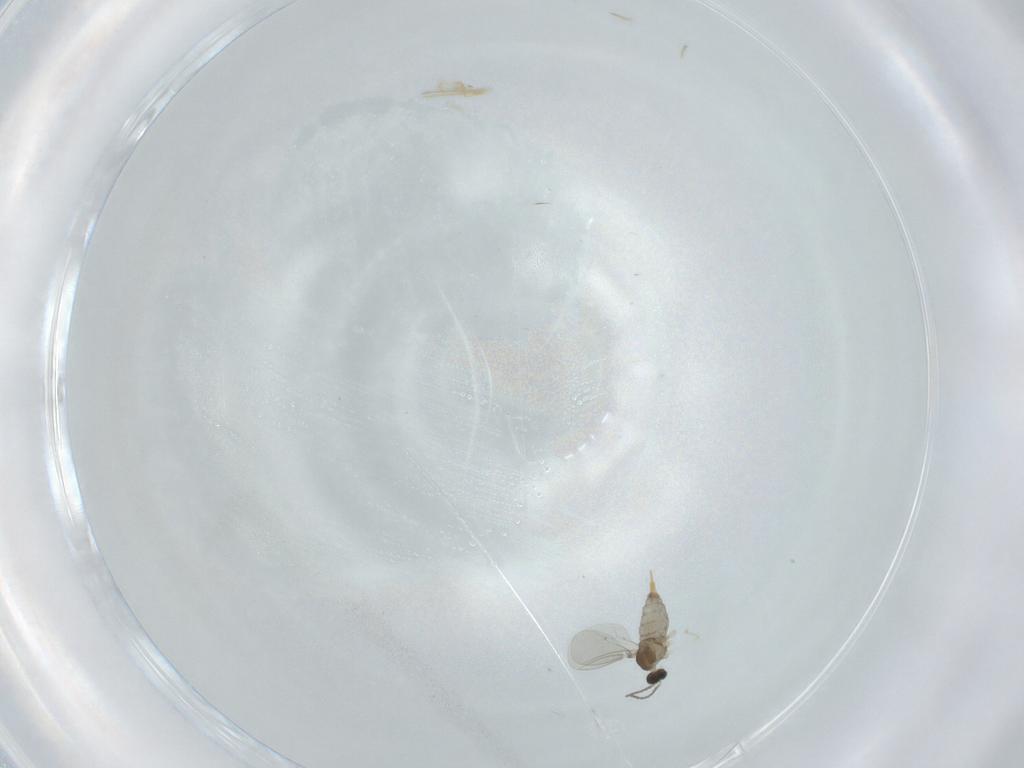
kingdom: Animalia
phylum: Arthropoda
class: Insecta
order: Diptera
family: Cecidomyiidae
